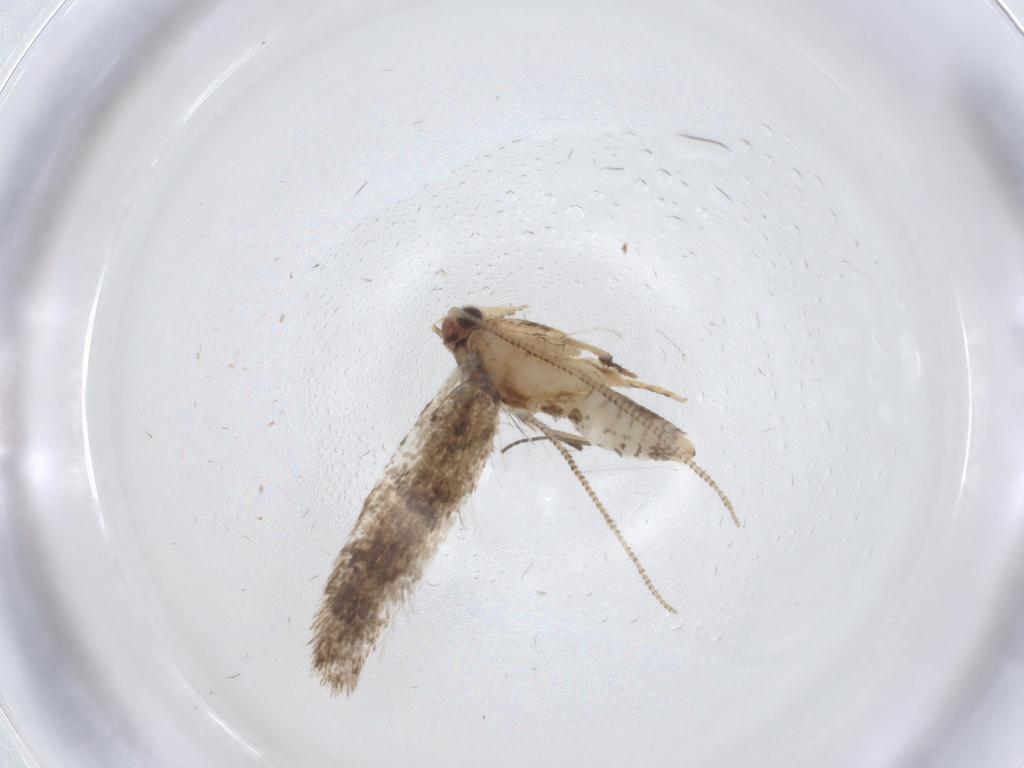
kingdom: Animalia
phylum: Arthropoda
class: Insecta
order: Lepidoptera
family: Tineidae
